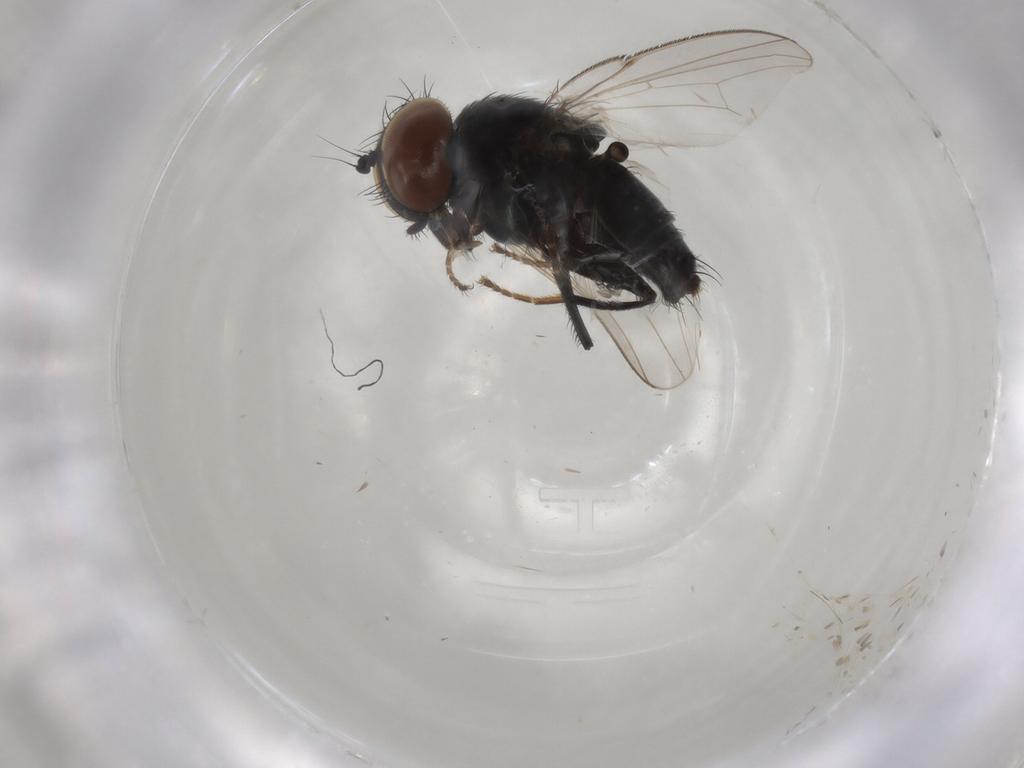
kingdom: Animalia
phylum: Arthropoda
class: Insecta
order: Diptera
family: Milichiidae
